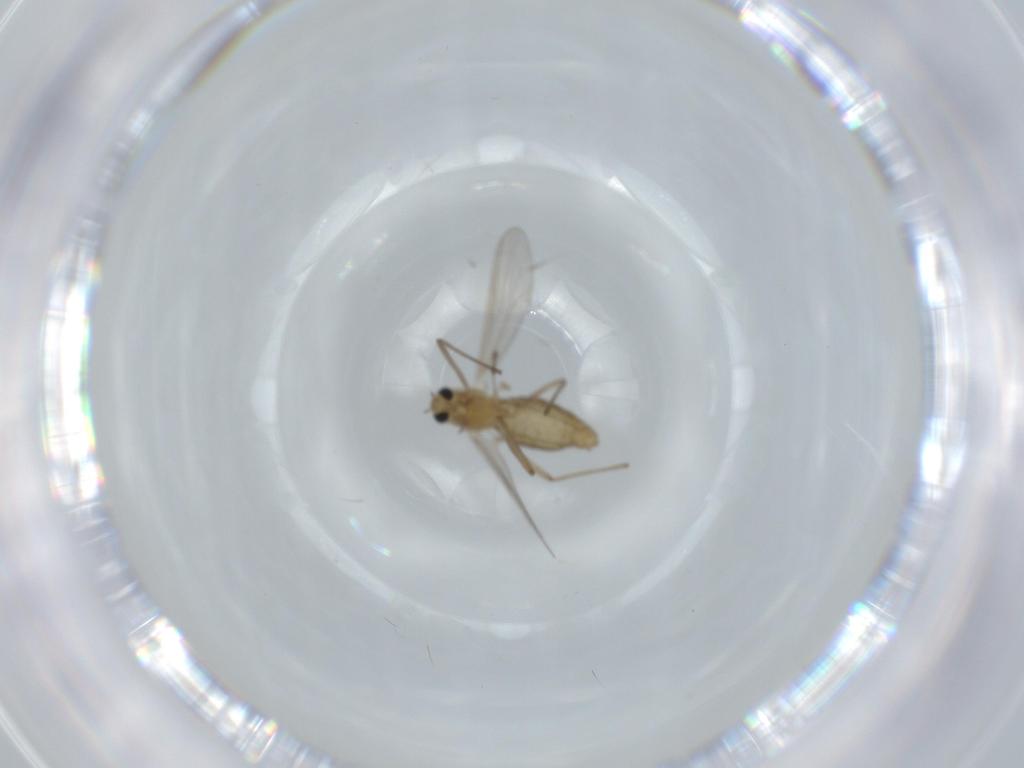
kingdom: Animalia
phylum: Arthropoda
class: Insecta
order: Diptera
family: Chironomidae
